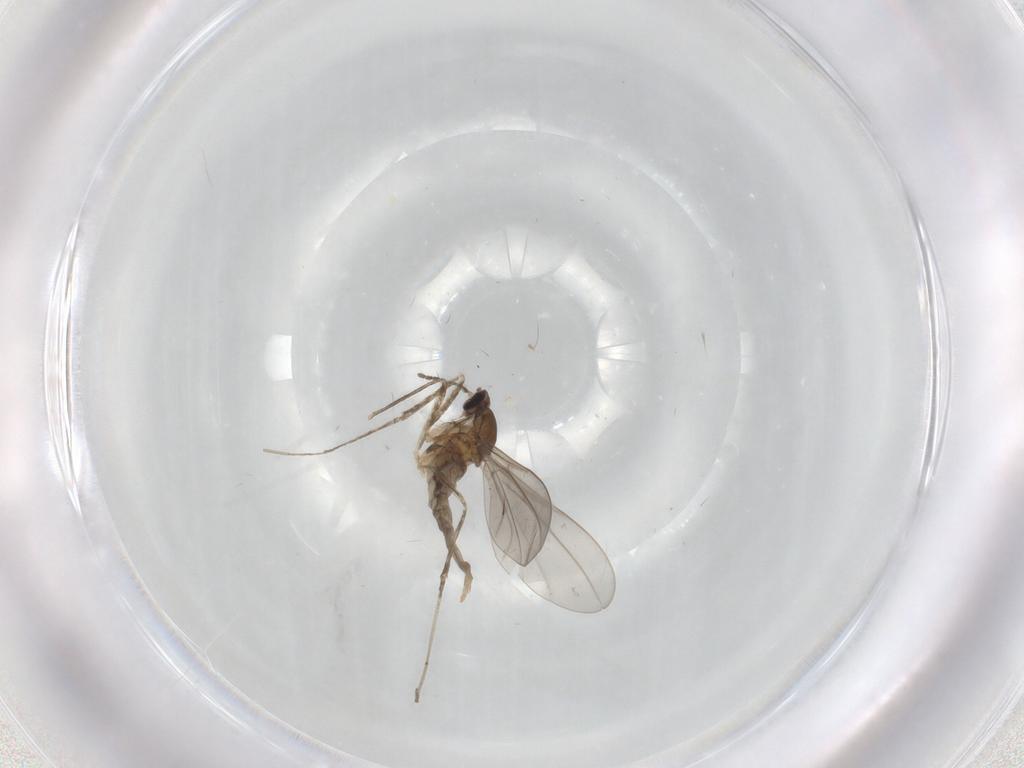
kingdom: Animalia
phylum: Arthropoda
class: Insecta
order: Diptera
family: Cecidomyiidae
